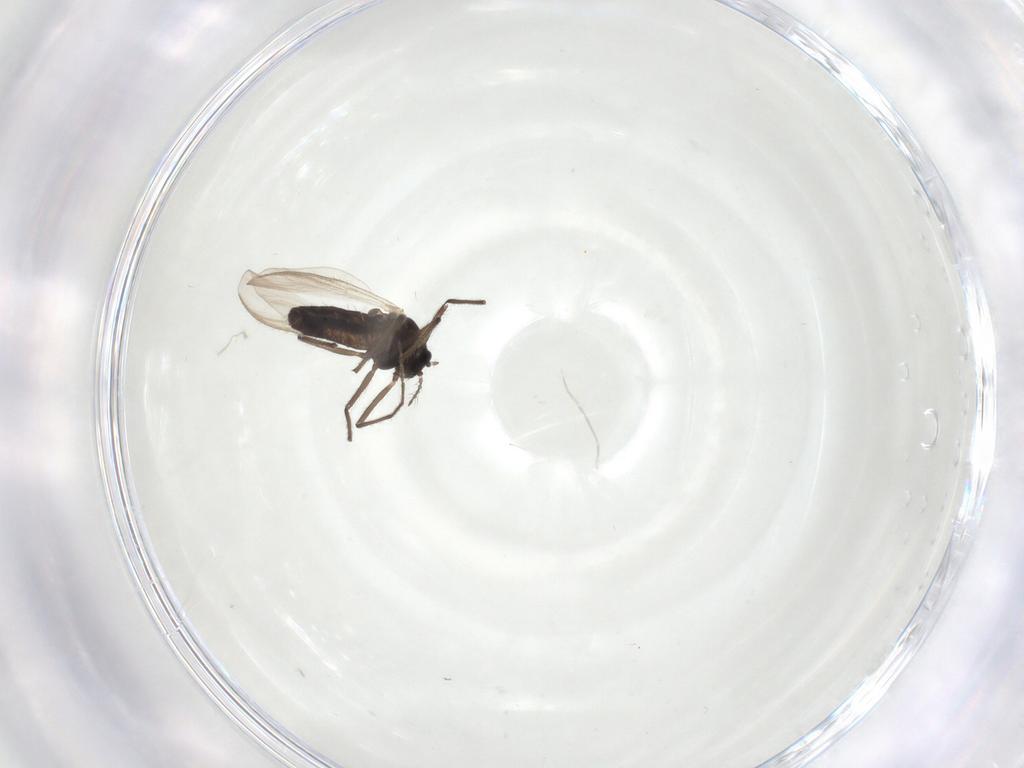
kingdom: Animalia
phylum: Arthropoda
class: Insecta
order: Diptera
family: Chironomidae
